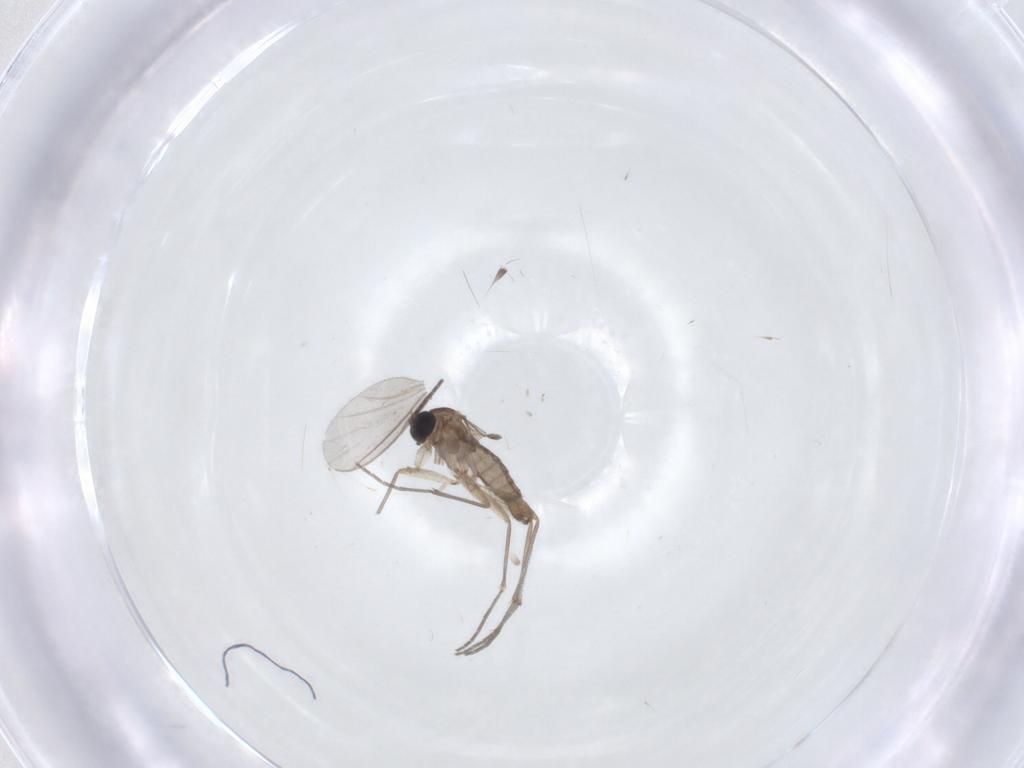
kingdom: Animalia
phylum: Arthropoda
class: Insecta
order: Diptera
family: Sciaridae
